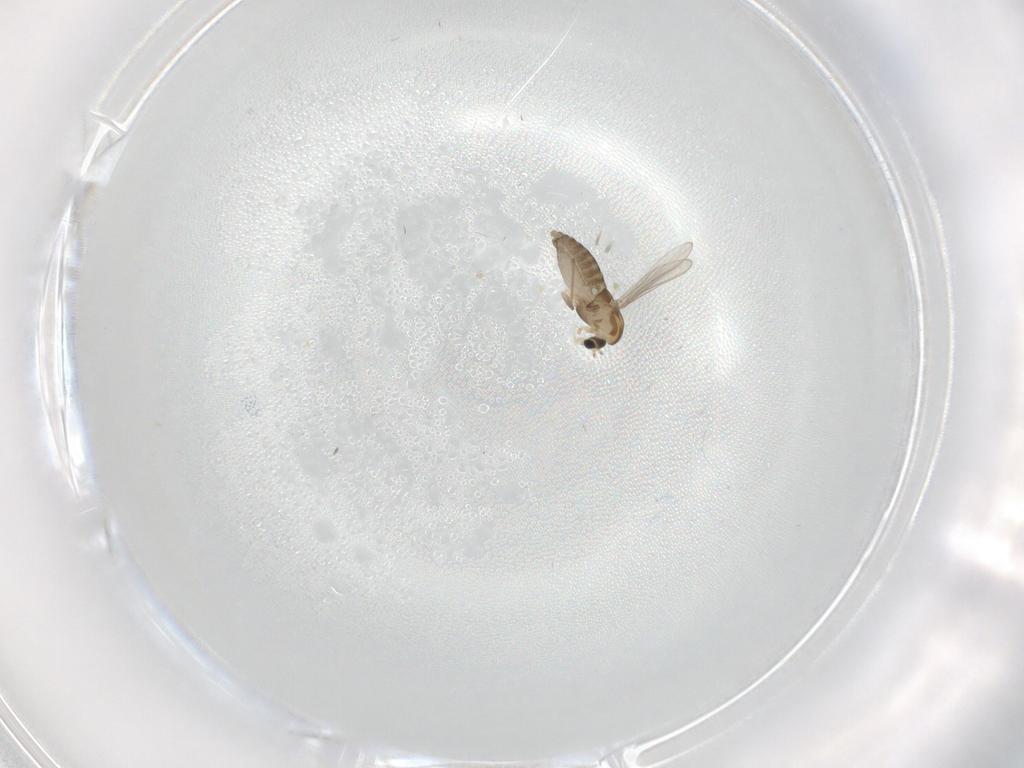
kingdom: Animalia
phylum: Arthropoda
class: Insecta
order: Diptera
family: Chironomidae
